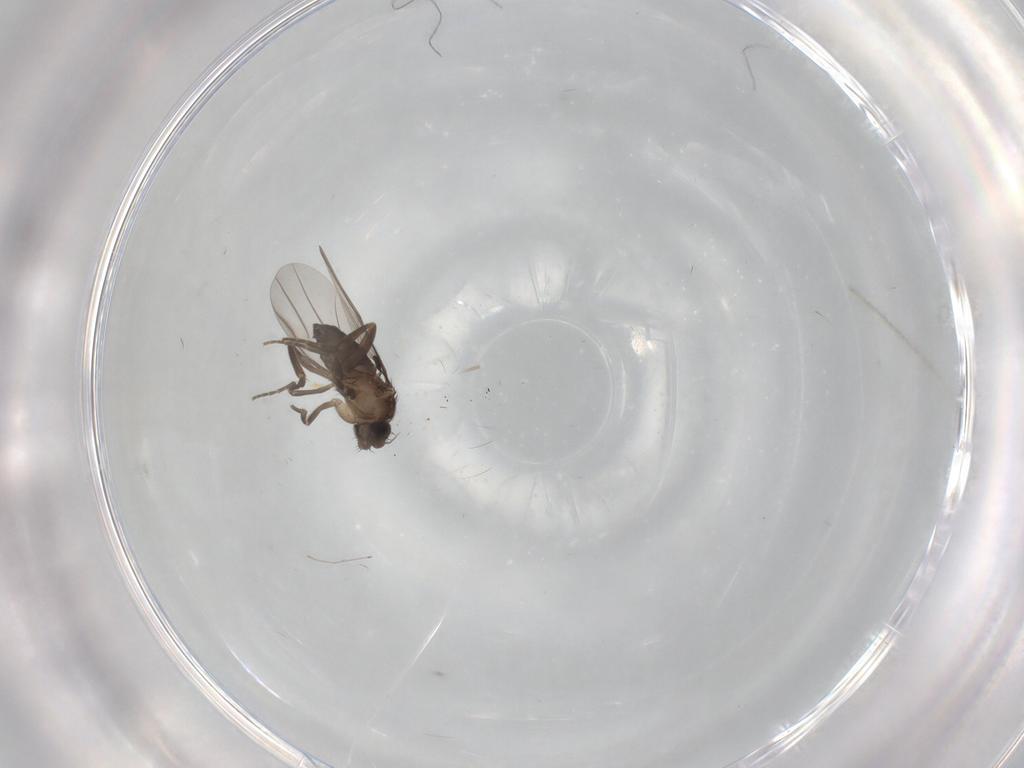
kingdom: Animalia
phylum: Arthropoda
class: Insecta
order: Diptera
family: Phoridae
